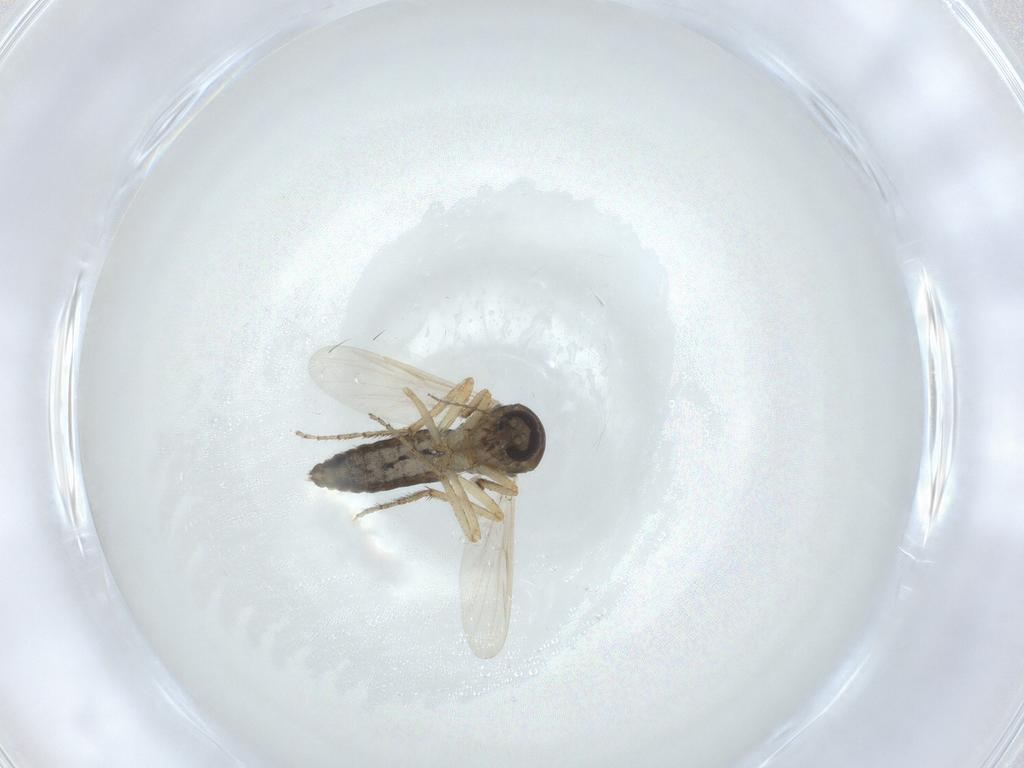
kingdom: Animalia
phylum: Arthropoda
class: Insecta
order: Diptera
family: Ceratopogonidae
